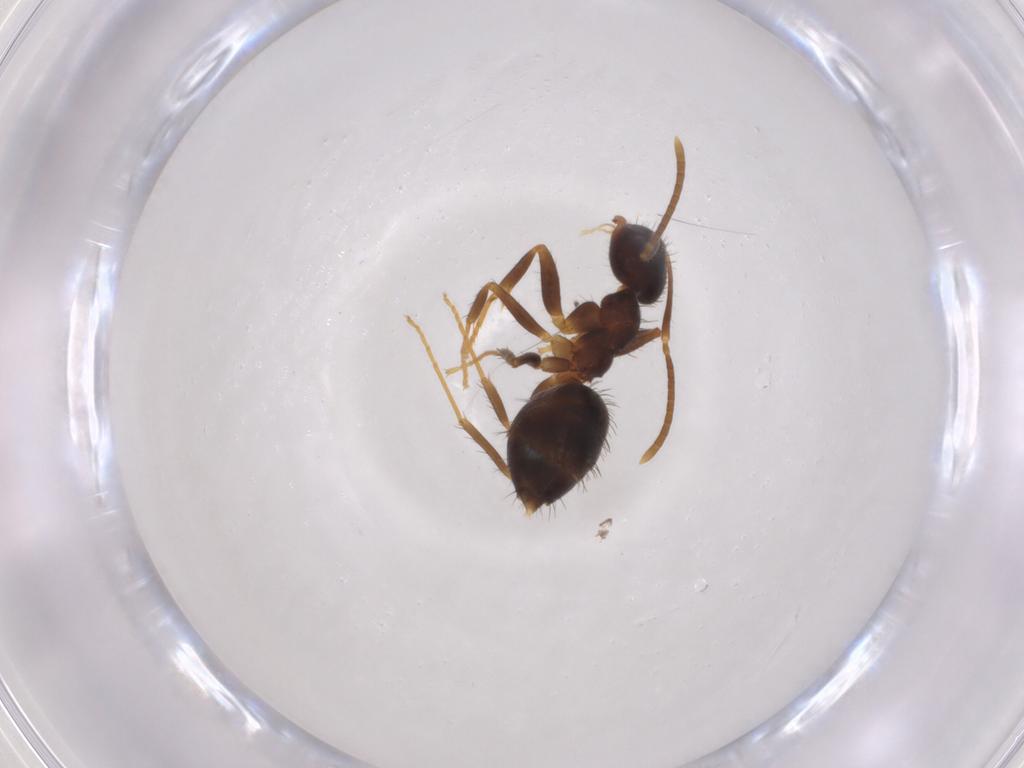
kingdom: Animalia
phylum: Arthropoda
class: Insecta
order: Hymenoptera
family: Formicidae
